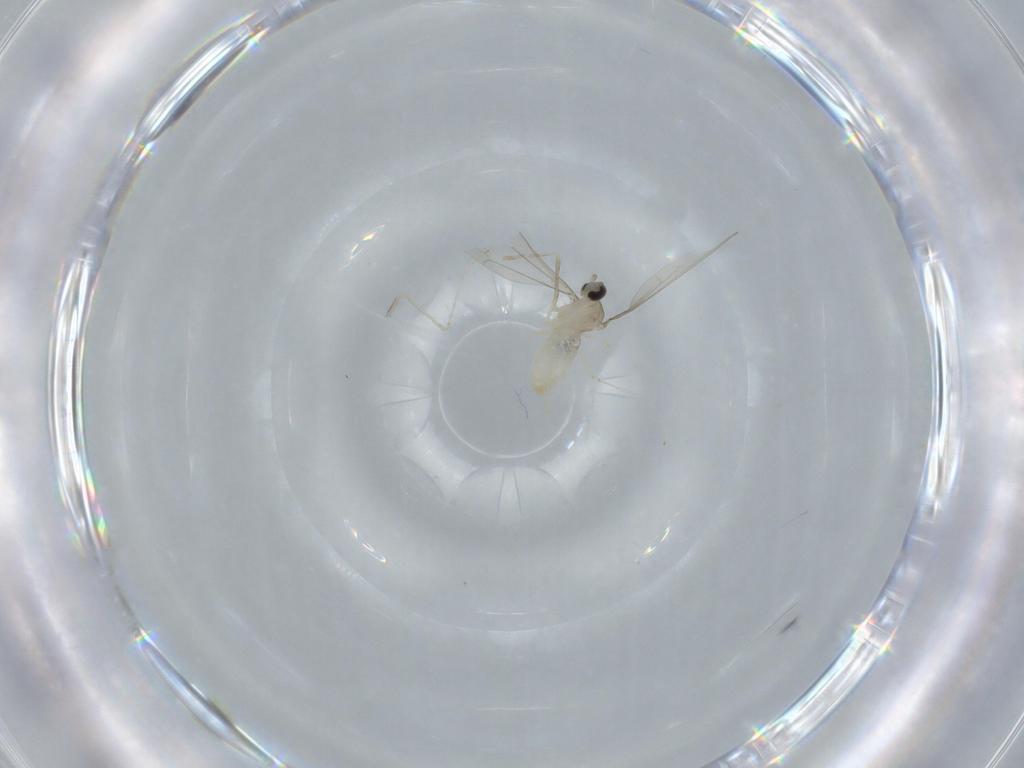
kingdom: Animalia
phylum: Arthropoda
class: Insecta
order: Diptera
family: Cecidomyiidae
